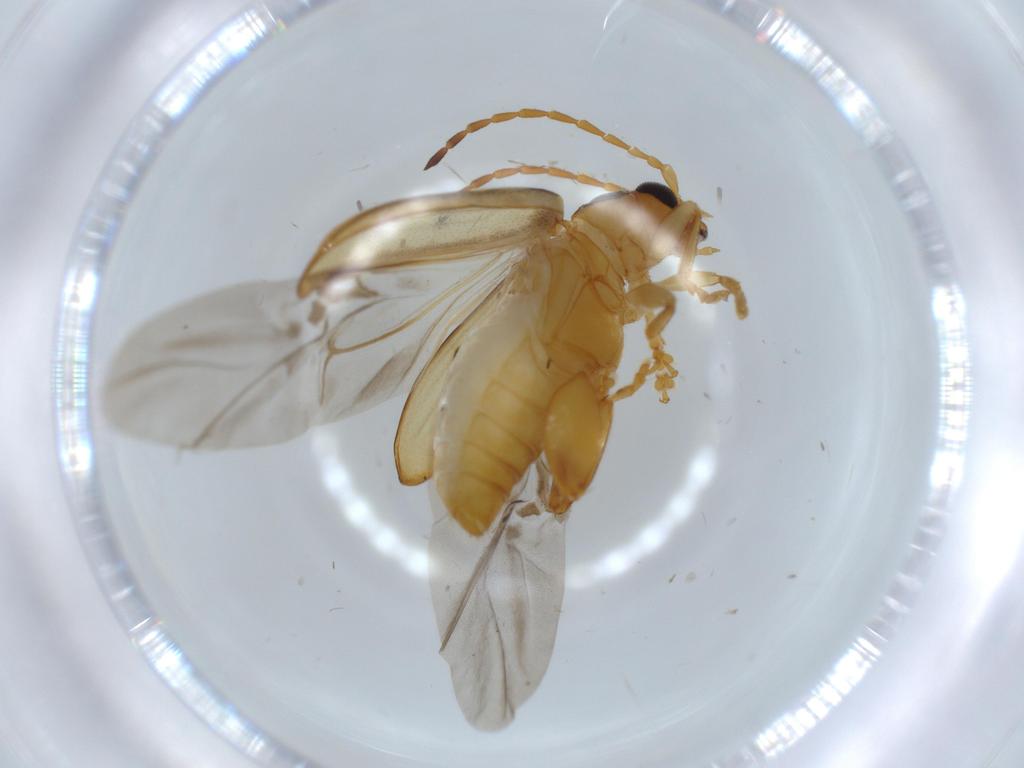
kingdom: Animalia
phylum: Arthropoda
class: Insecta
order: Coleoptera
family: Chrysomelidae
